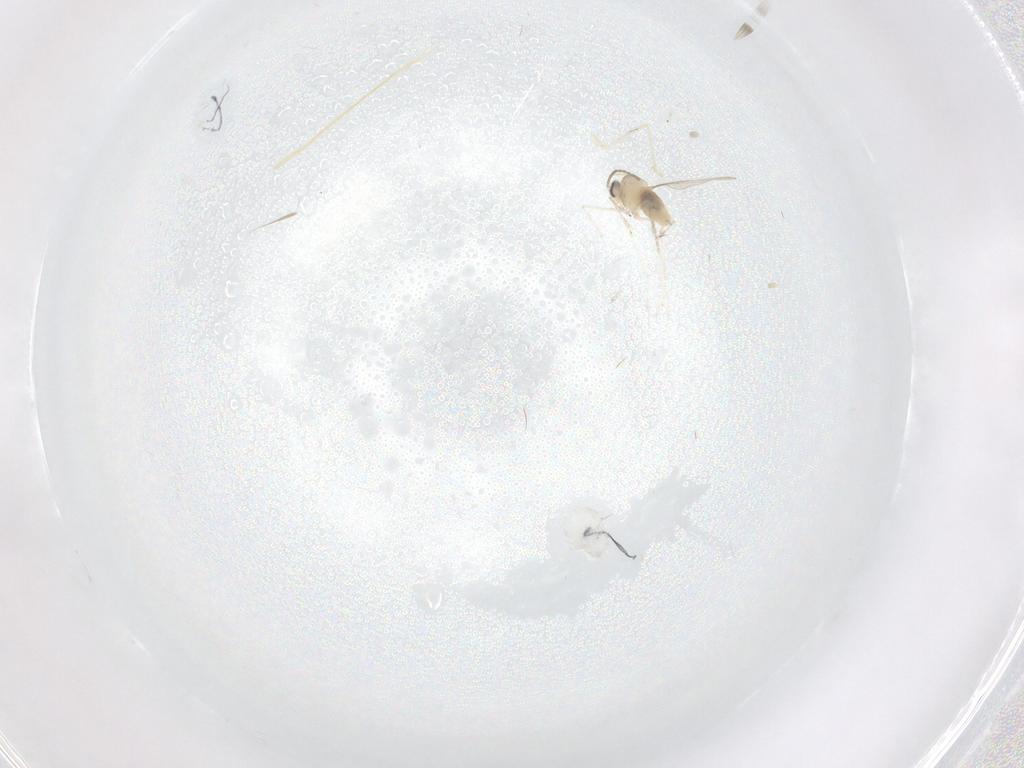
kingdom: Animalia
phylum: Arthropoda
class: Insecta
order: Diptera
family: Cecidomyiidae
